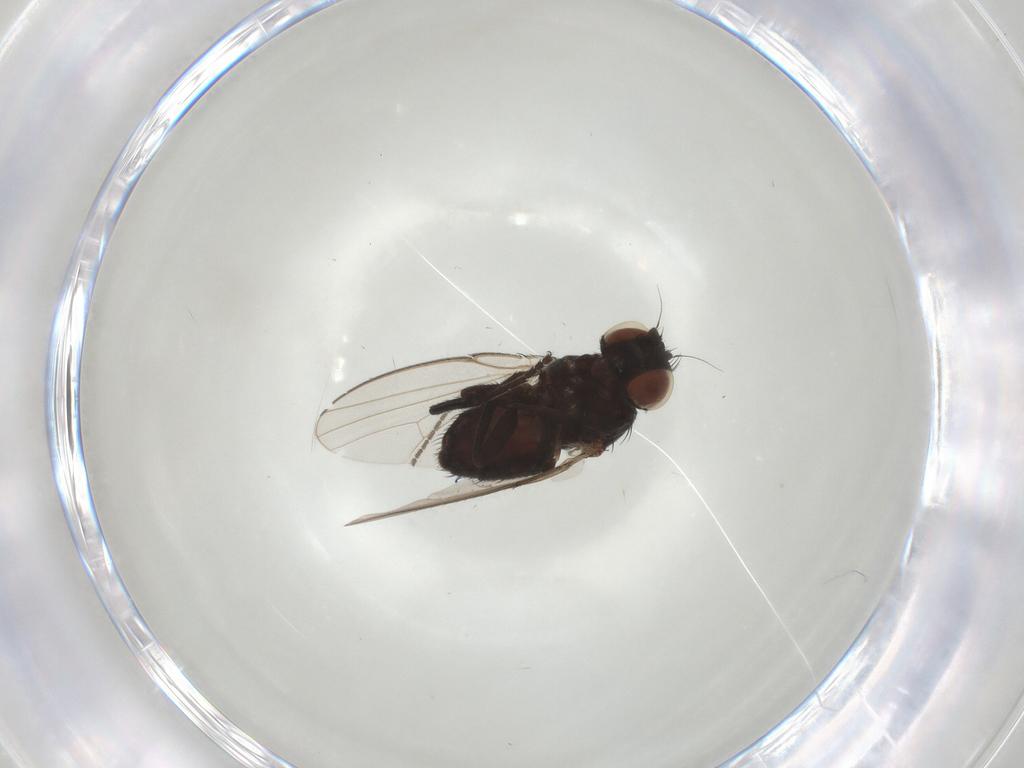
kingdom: Animalia
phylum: Arthropoda
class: Insecta
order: Diptera
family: Milichiidae
